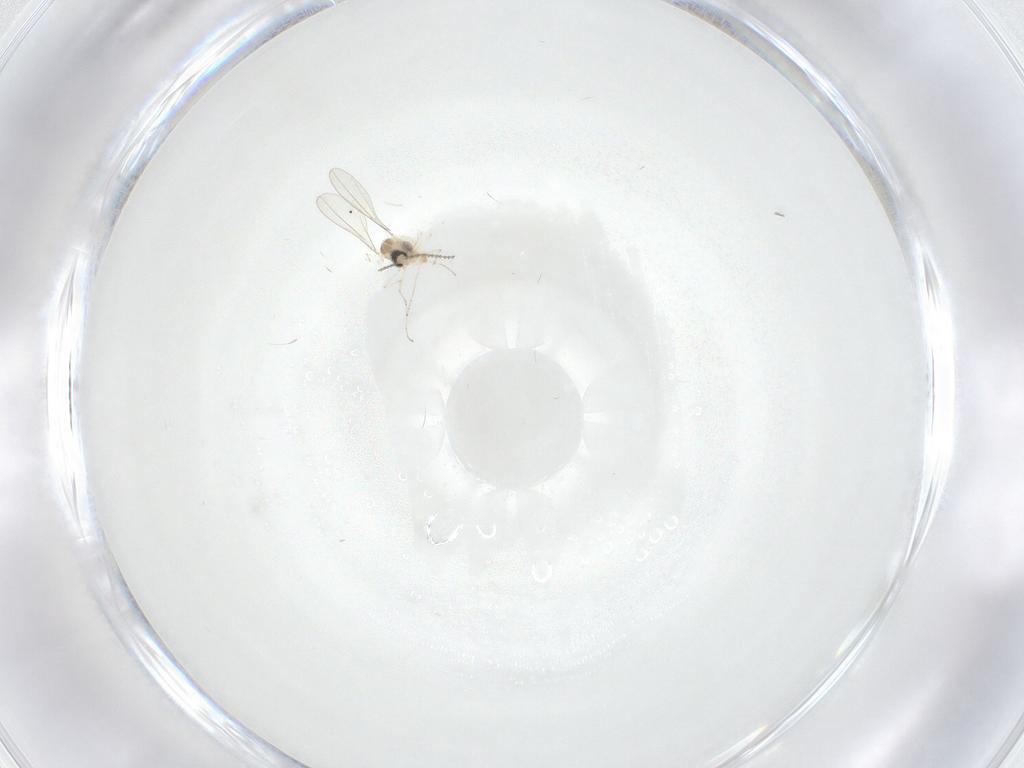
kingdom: Animalia
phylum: Arthropoda
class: Insecta
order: Diptera
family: Cecidomyiidae
